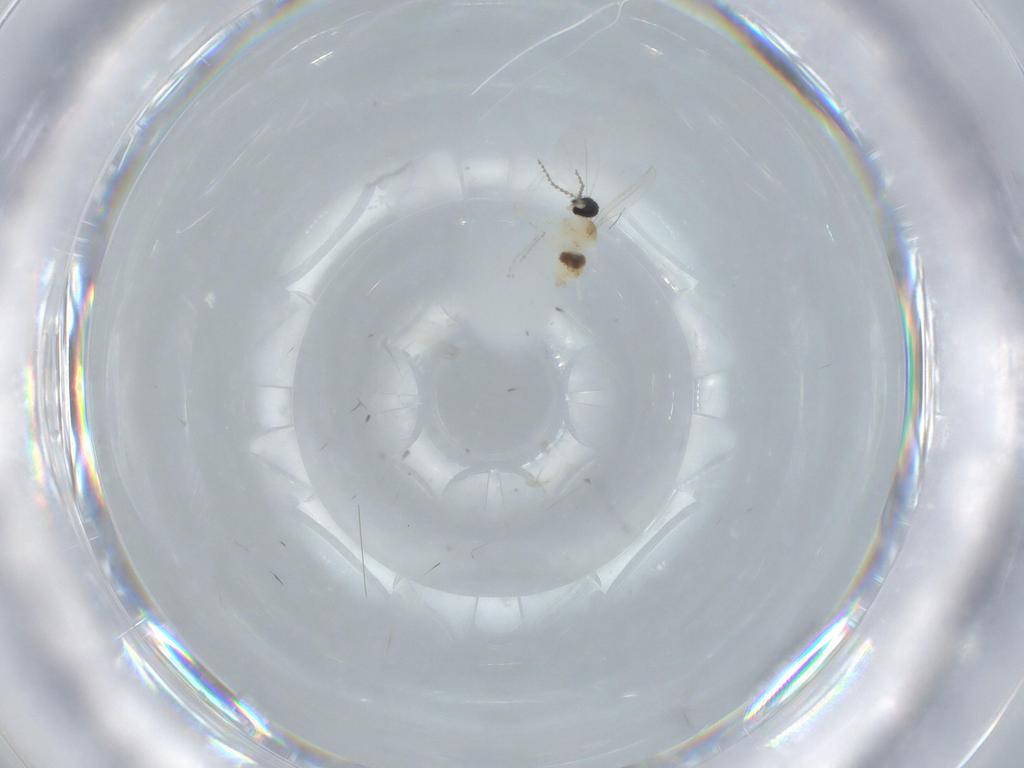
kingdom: Animalia
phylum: Arthropoda
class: Insecta
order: Diptera
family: Cecidomyiidae
